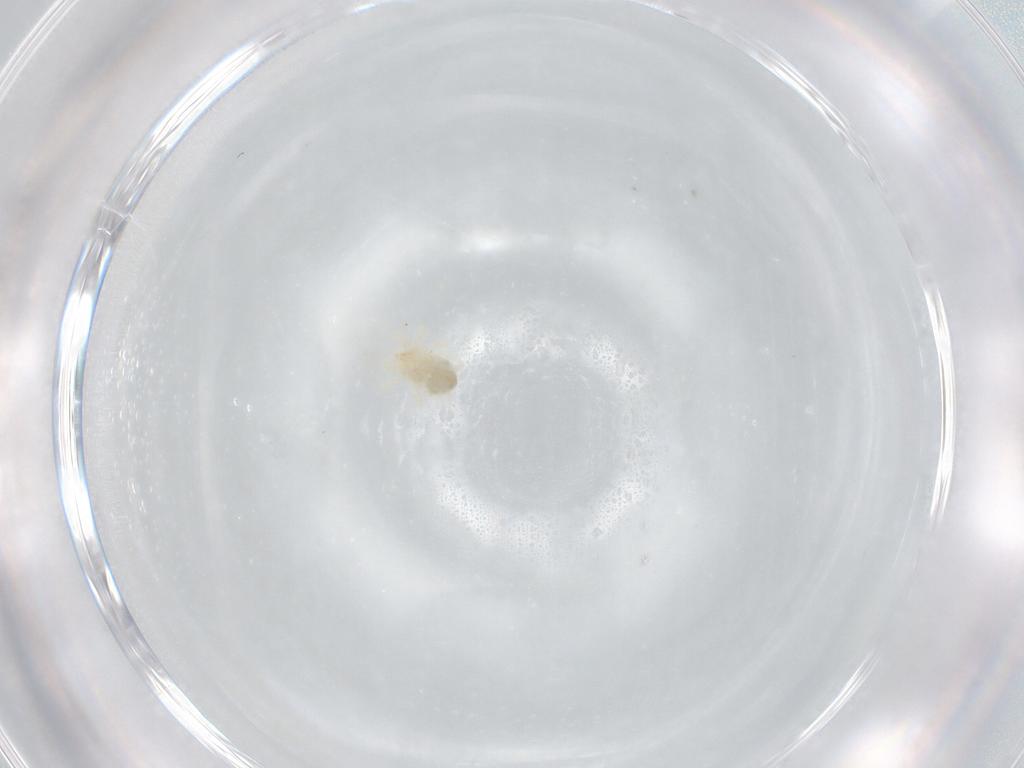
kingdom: Animalia
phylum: Arthropoda
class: Arachnida
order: Trombidiformes
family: Anystidae
